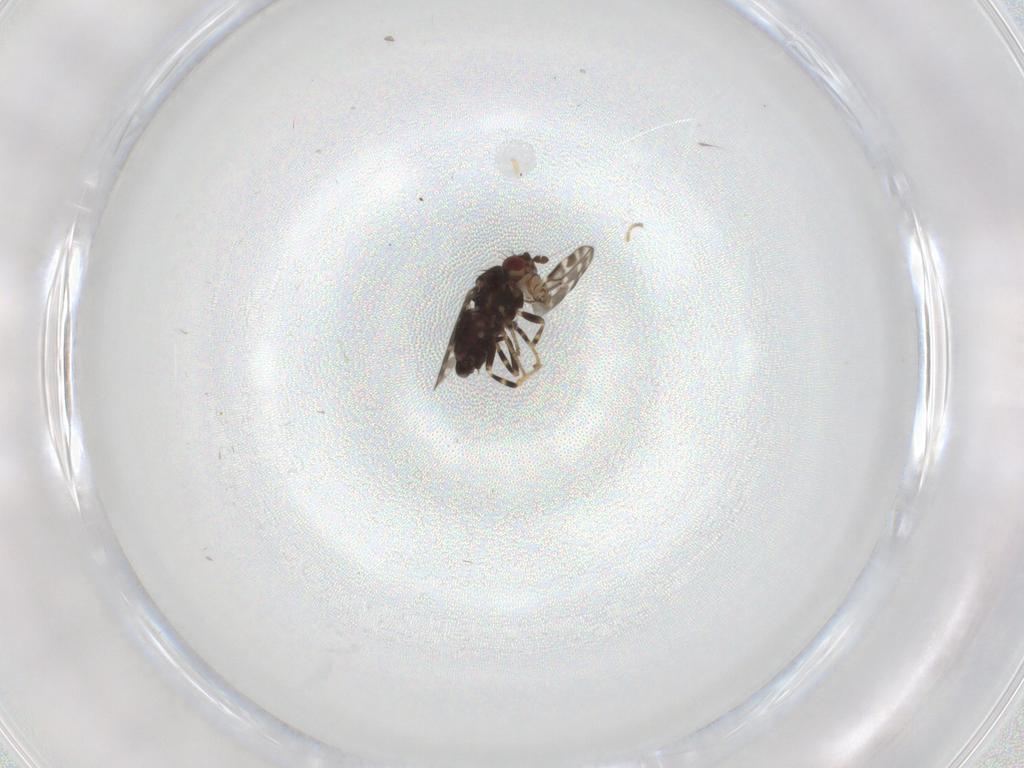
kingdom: Animalia
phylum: Arthropoda
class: Insecta
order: Diptera
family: Sphaeroceridae
